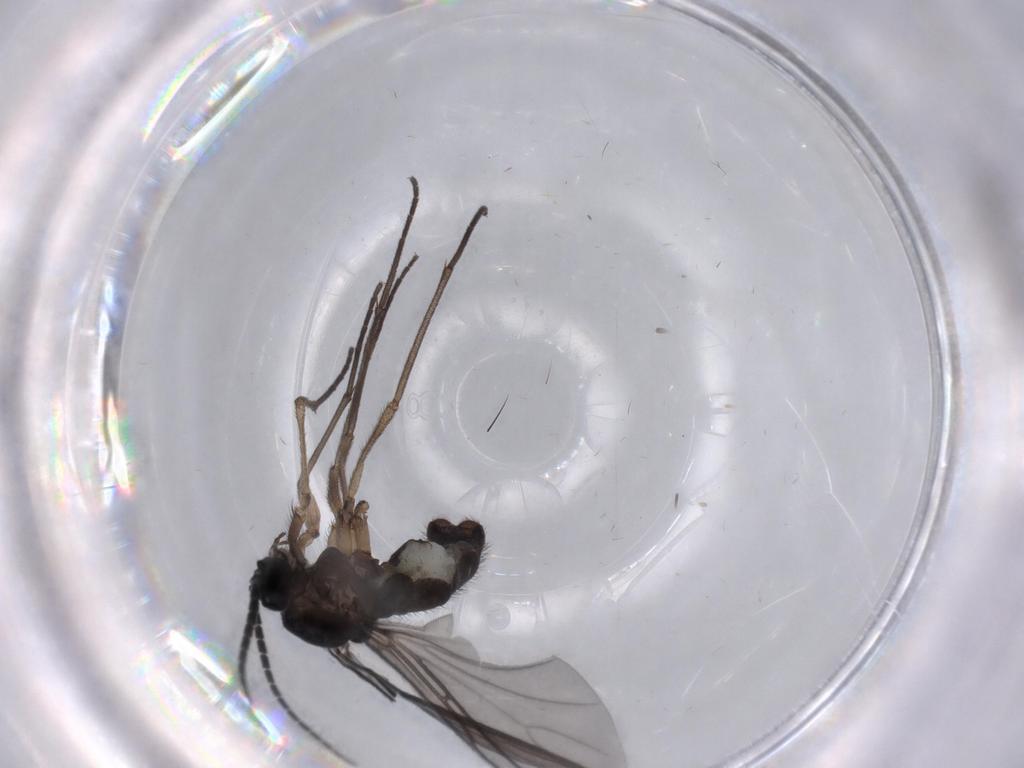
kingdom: Animalia
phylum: Arthropoda
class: Insecta
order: Diptera
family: Sciaridae
